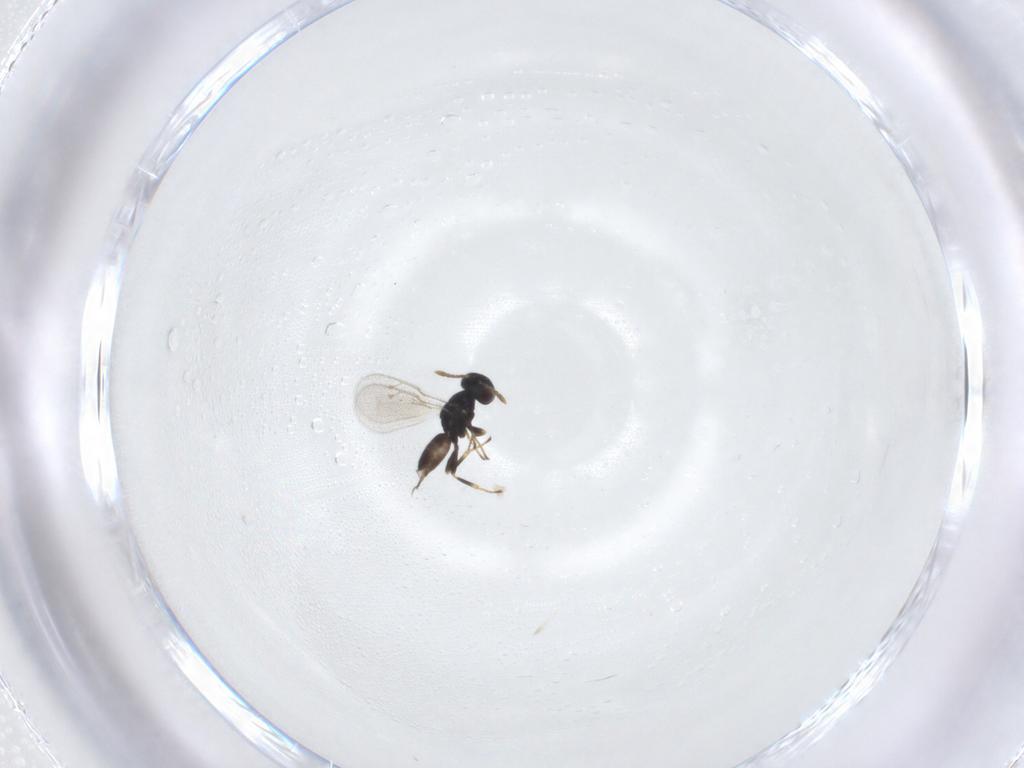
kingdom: Animalia
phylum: Arthropoda
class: Insecta
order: Hymenoptera
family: Pteromalidae
